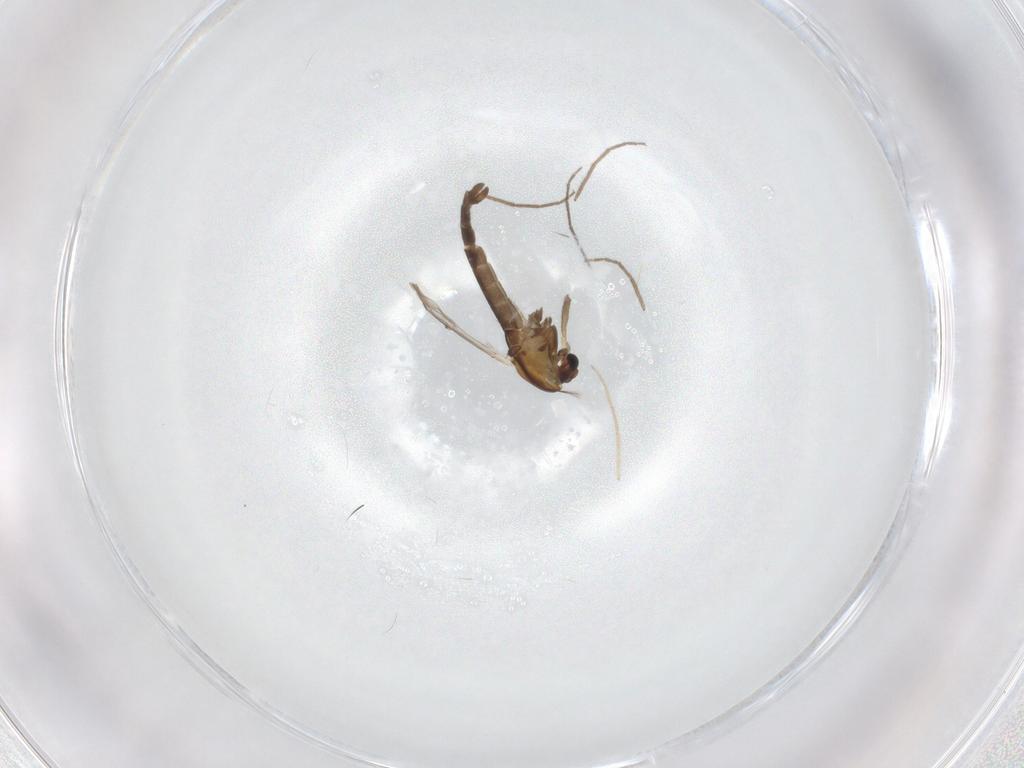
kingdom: Animalia
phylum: Arthropoda
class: Insecta
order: Diptera
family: Chironomidae
